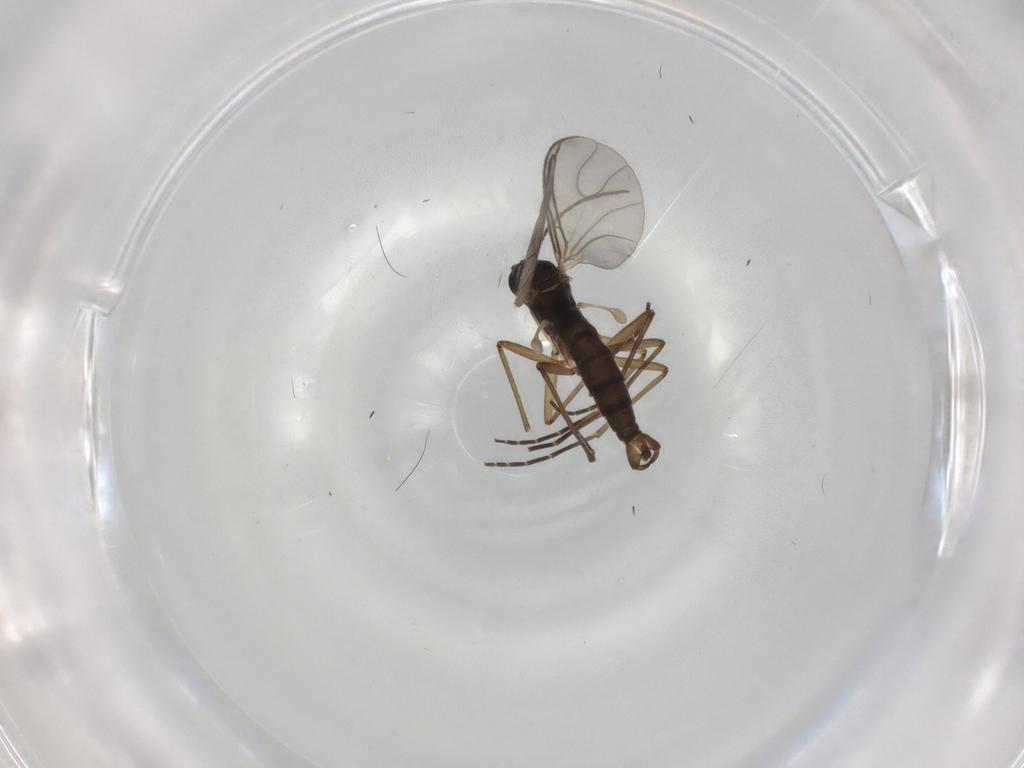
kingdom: Animalia
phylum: Arthropoda
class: Insecta
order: Diptera
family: Sciaridae
